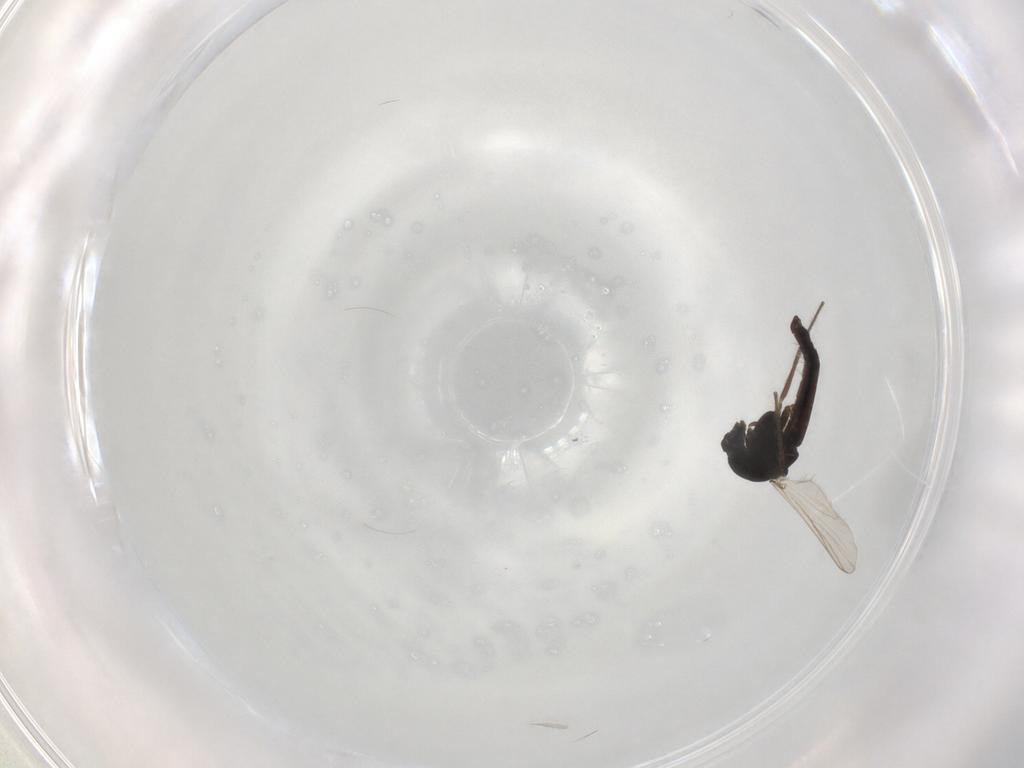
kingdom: Animalia
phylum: Arthropoda
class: Insecta
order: Diptera
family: Chironomidae
